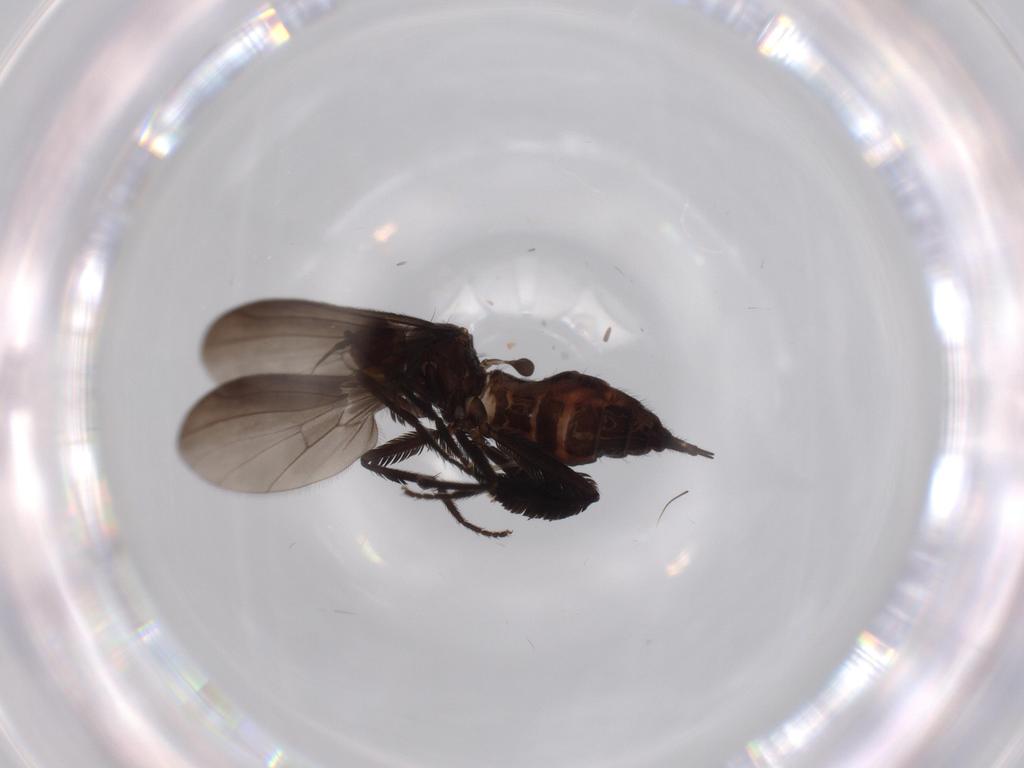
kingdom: Animalia
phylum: Arthropoda
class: Insecta
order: Diptera
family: Empididae
